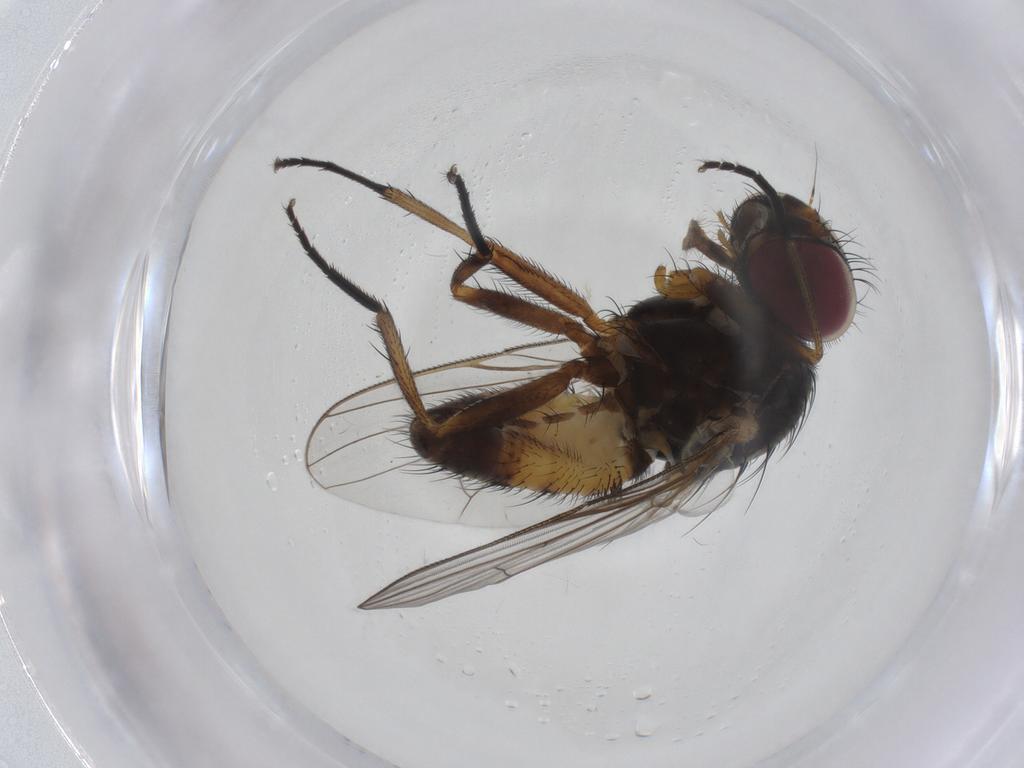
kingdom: Animalia
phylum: Arthropoda
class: Insecta
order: Diptera
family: Fannia
